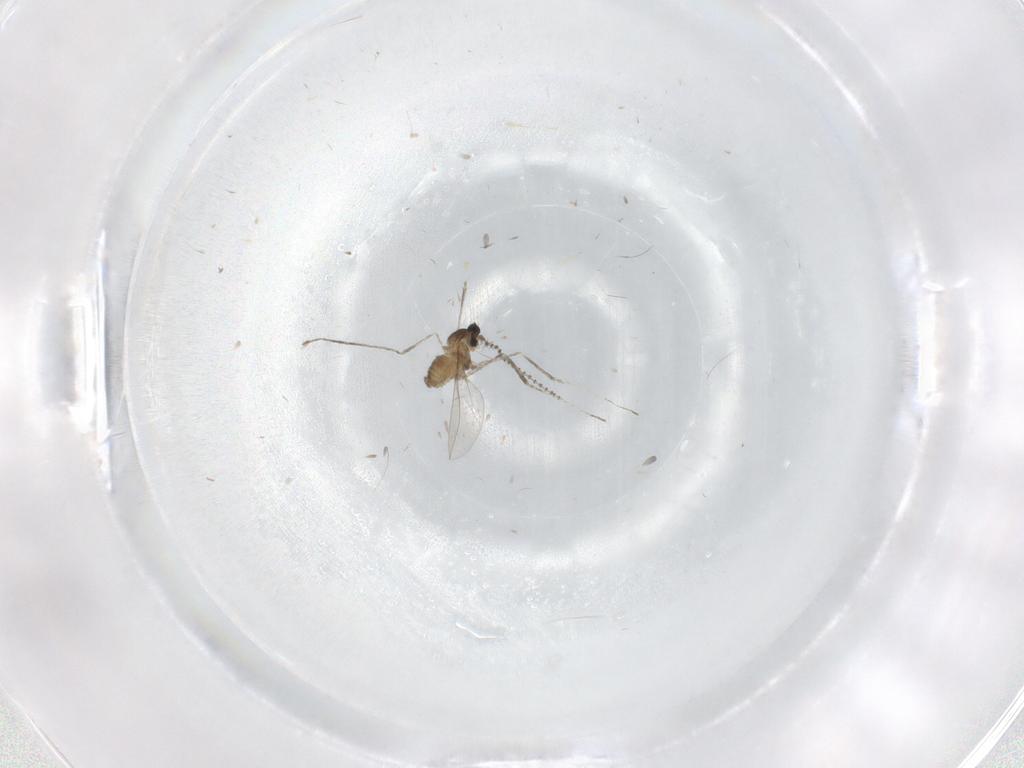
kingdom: Animalia
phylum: Arthropoda
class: Insecta
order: Diptera
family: Cecidomyiidae
